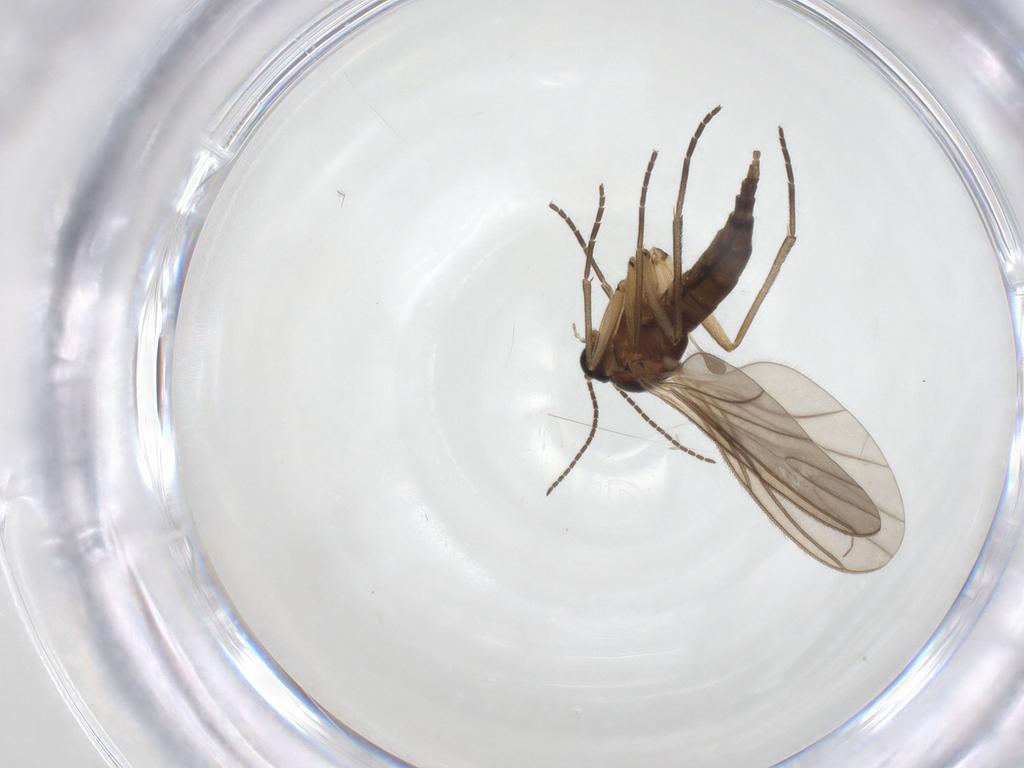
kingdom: Animalia
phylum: Arthropoda
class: Insecta
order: Diptera
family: Sciaridae
